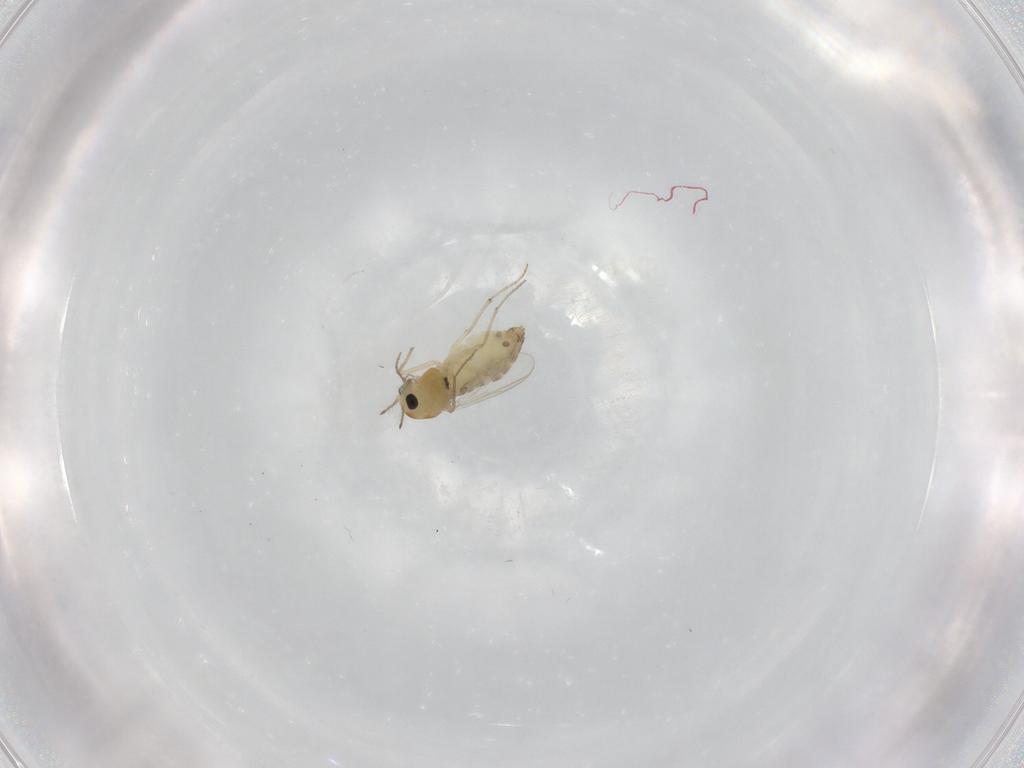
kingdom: Animalia
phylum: Arthropoda
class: Insecta
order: Diptera
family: Chironomidae
